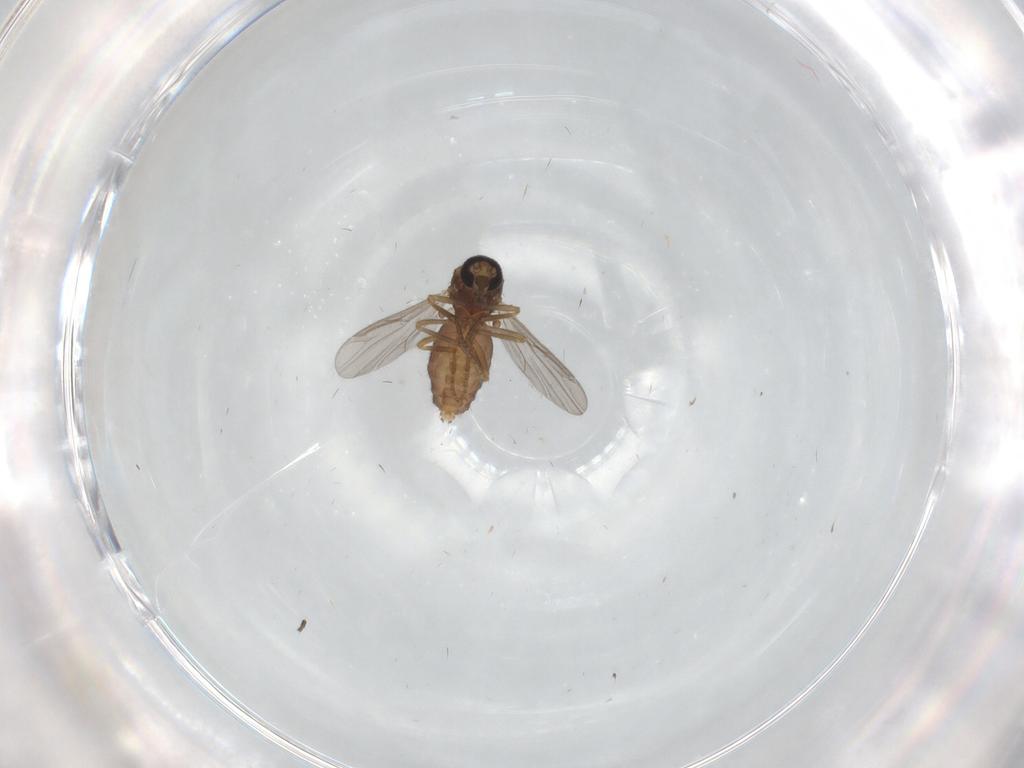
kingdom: Animalia
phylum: Arthropoda
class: Insecta
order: Diptera
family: Ceratopogonidae
